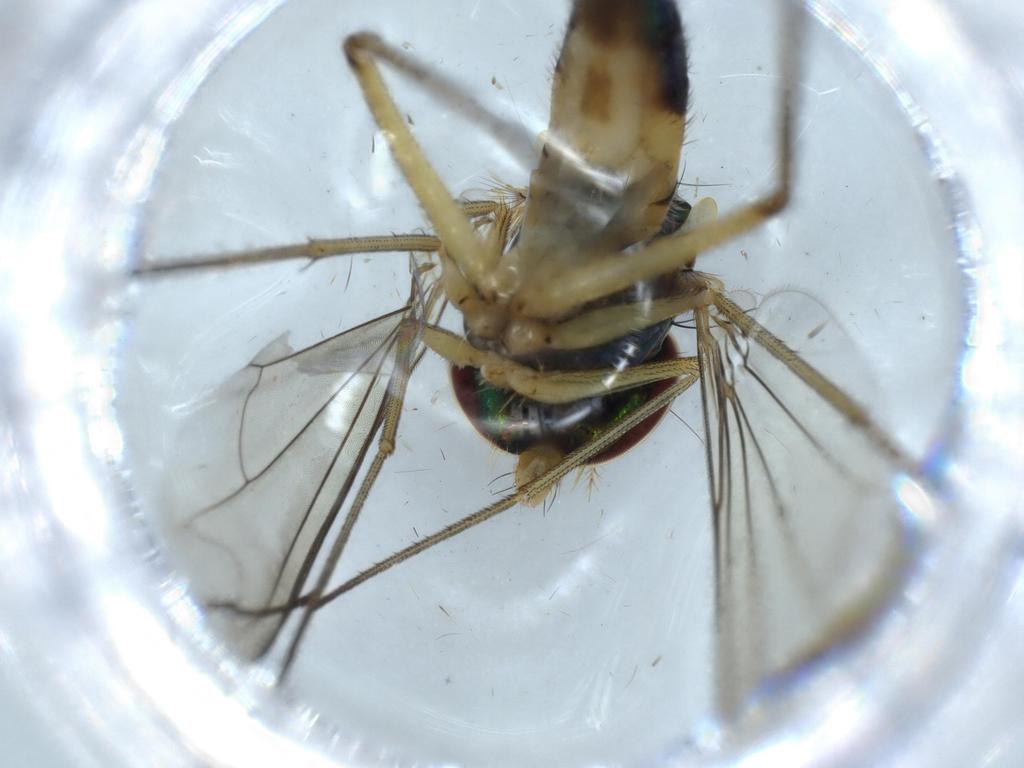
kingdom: Animalia
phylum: Arthropoda
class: Insecta
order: Diptera
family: Dolichopodidae
